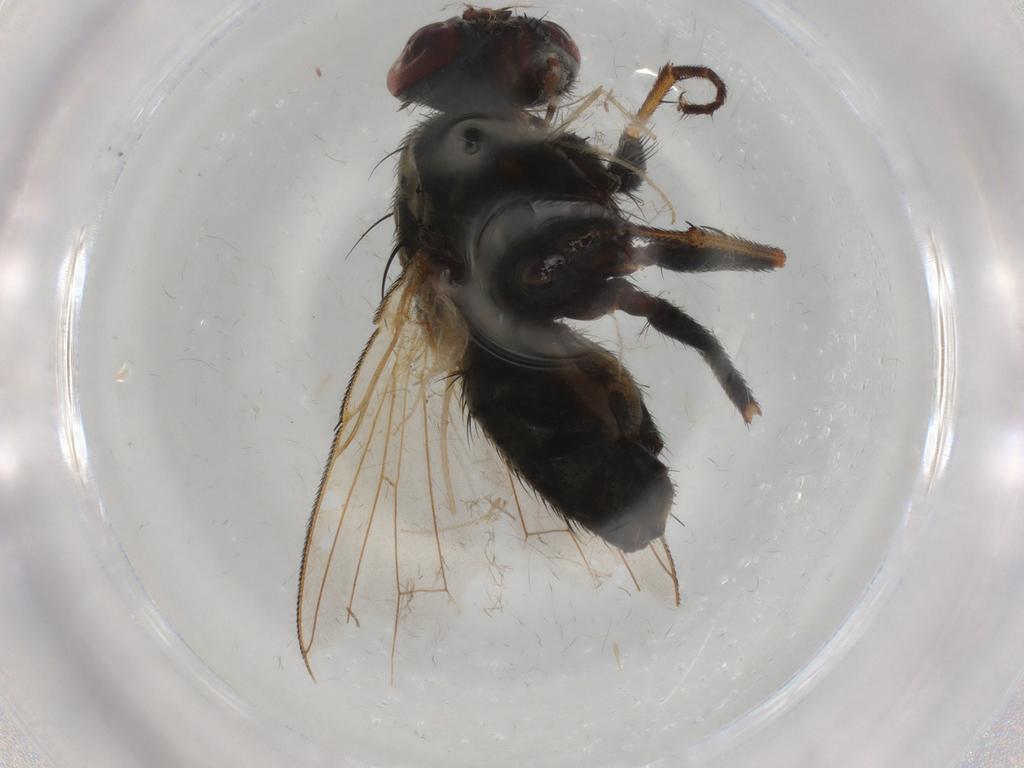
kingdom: Animalia
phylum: Arthropoda
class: Insecta
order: Diptera
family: Muscidae
